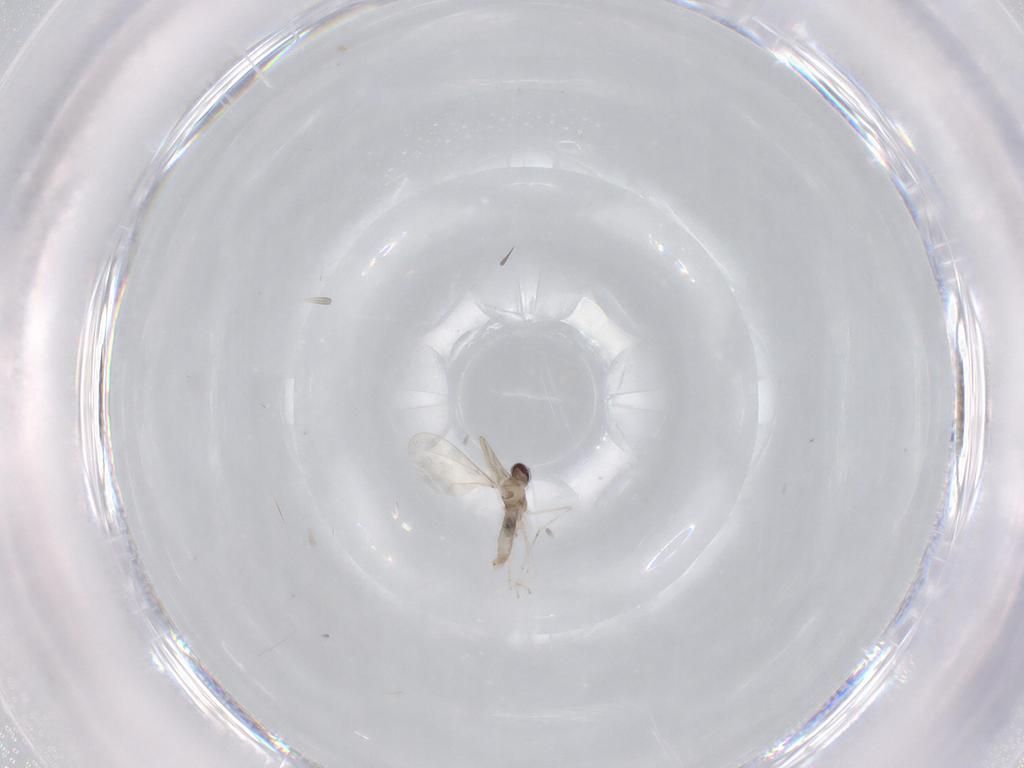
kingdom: Animalia
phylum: Arthropoda
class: Insecta
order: Diptera
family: Cecidomyiidae
